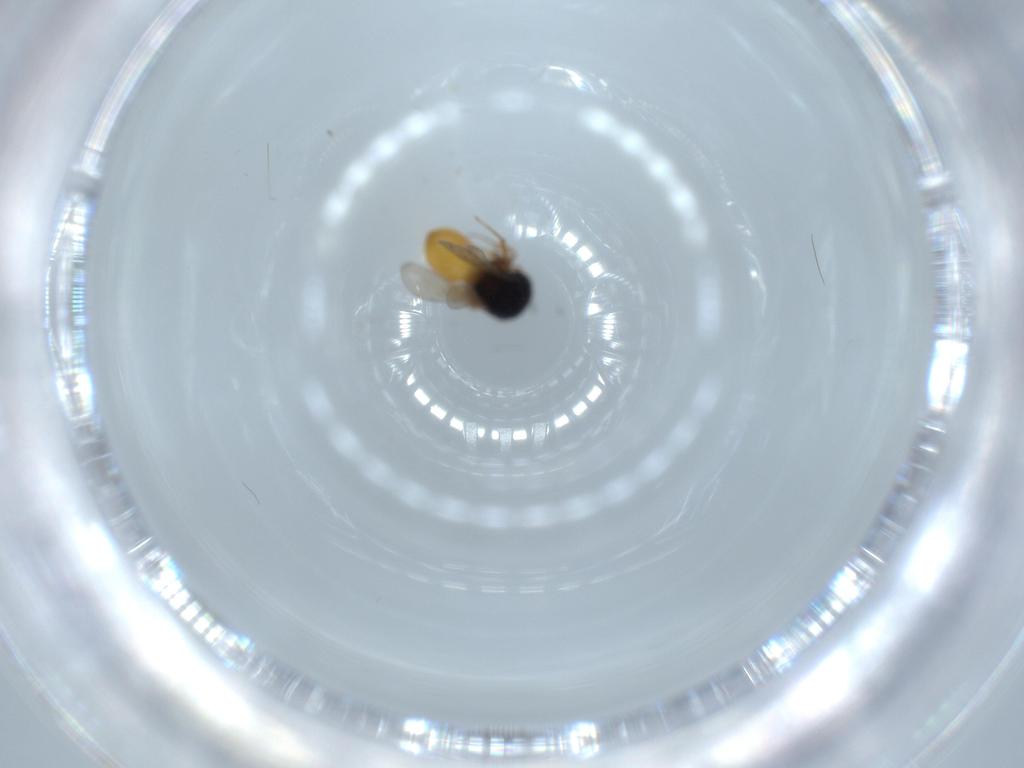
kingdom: Animalia
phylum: Arthropoda
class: Insecta
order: Hymenoptera
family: Scelionidae
